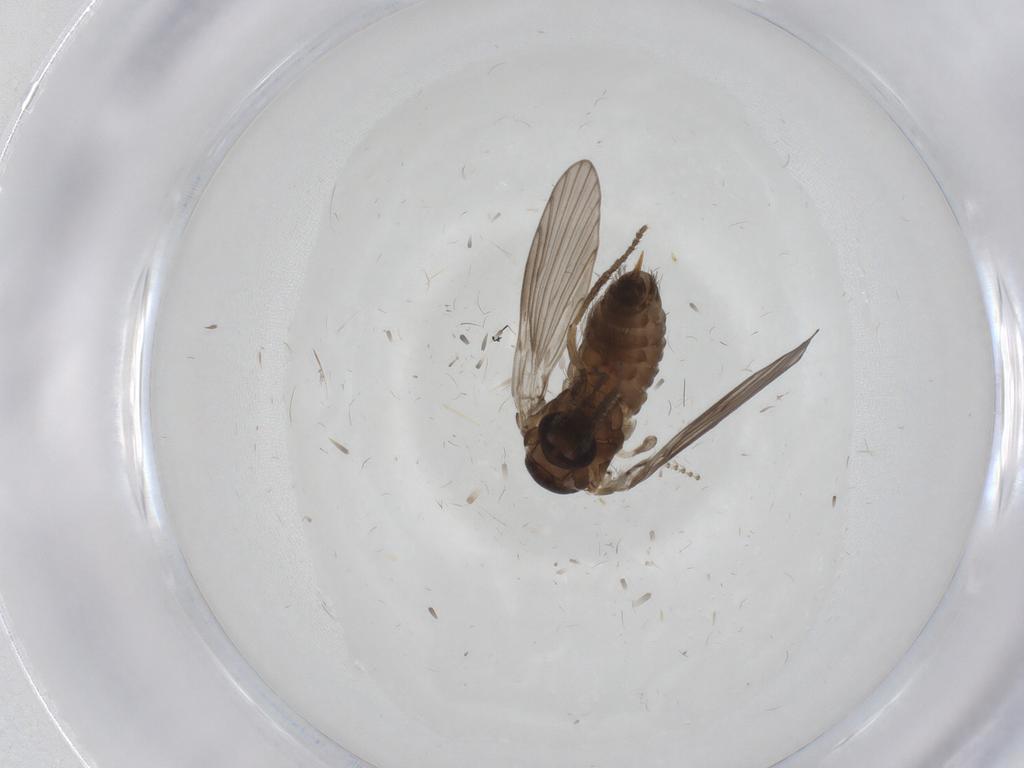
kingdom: Animalia
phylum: Arthropoda
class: Insecta
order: Diptera
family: Psychodidae
